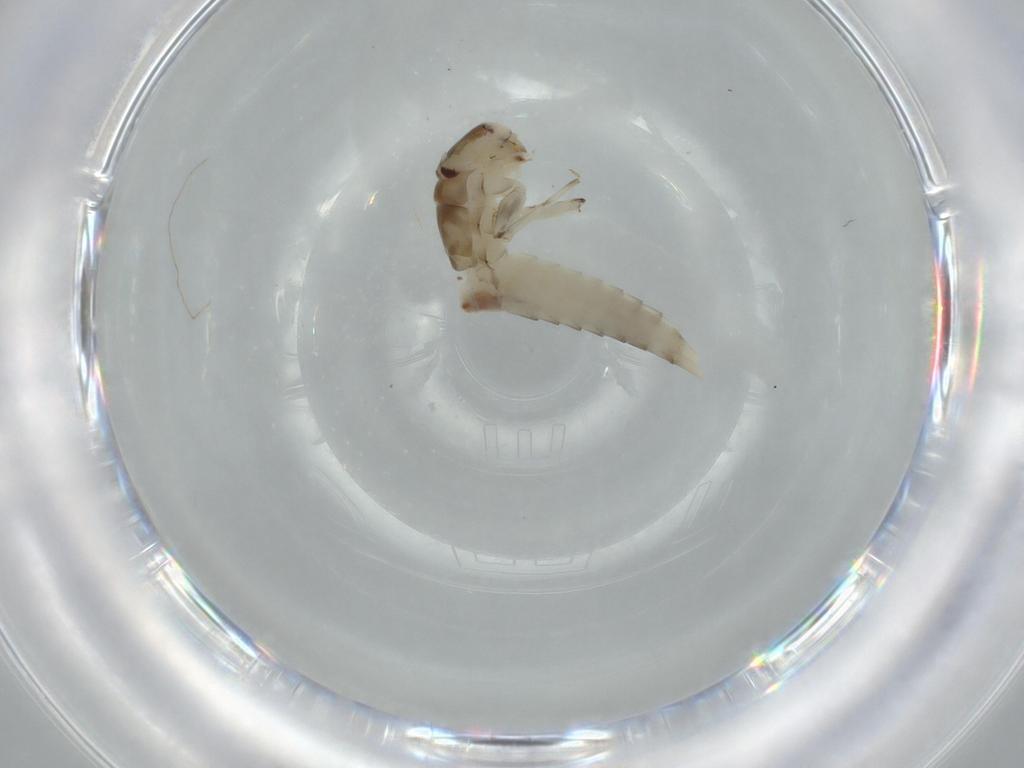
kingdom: Animalia
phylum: Arthropoda
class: Insecta
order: Ephemeroptera
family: Baetidae
